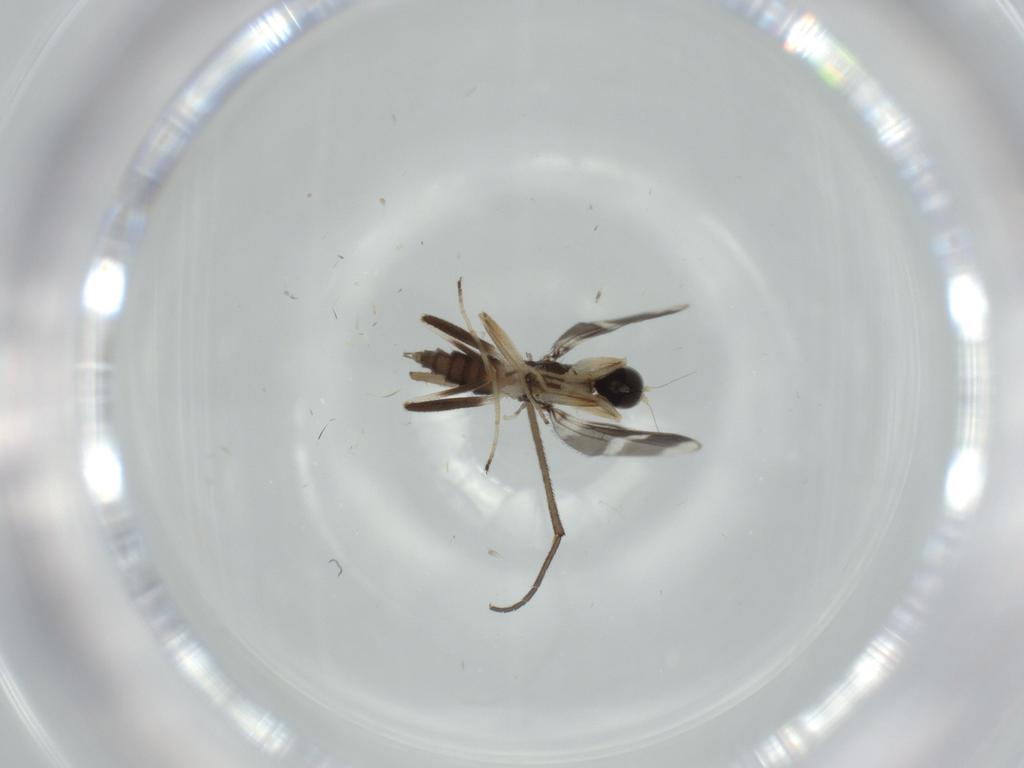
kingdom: Animalia
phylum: Arthropoda
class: Insecta
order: Diptera
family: Hybotidae
